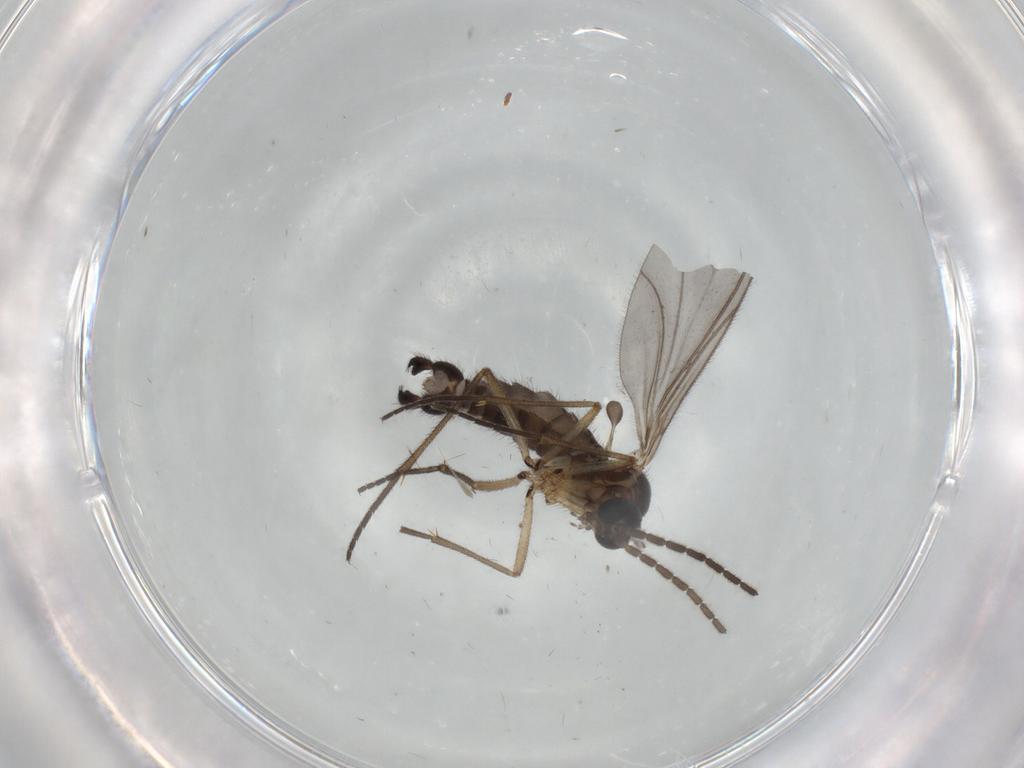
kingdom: Animalia
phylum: Arthropoda
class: Insecta
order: Diptera
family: Sciaridae
